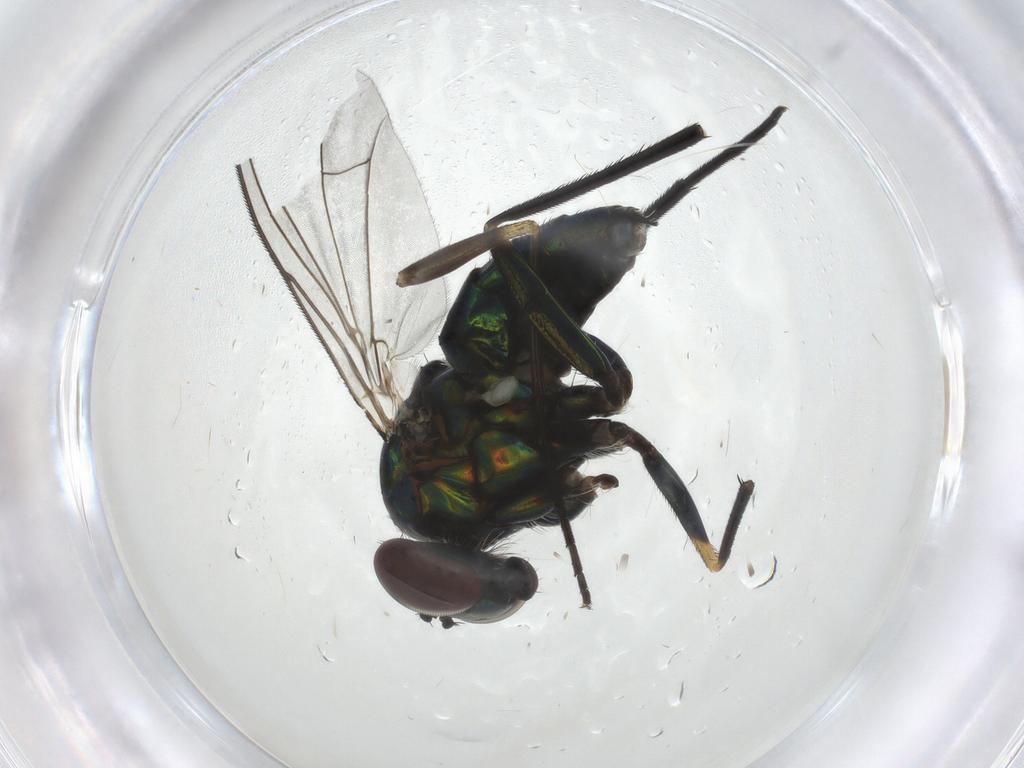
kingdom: Animalia
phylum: Arthropoda
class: Insecta
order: Diptera
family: Dolichopodidae
